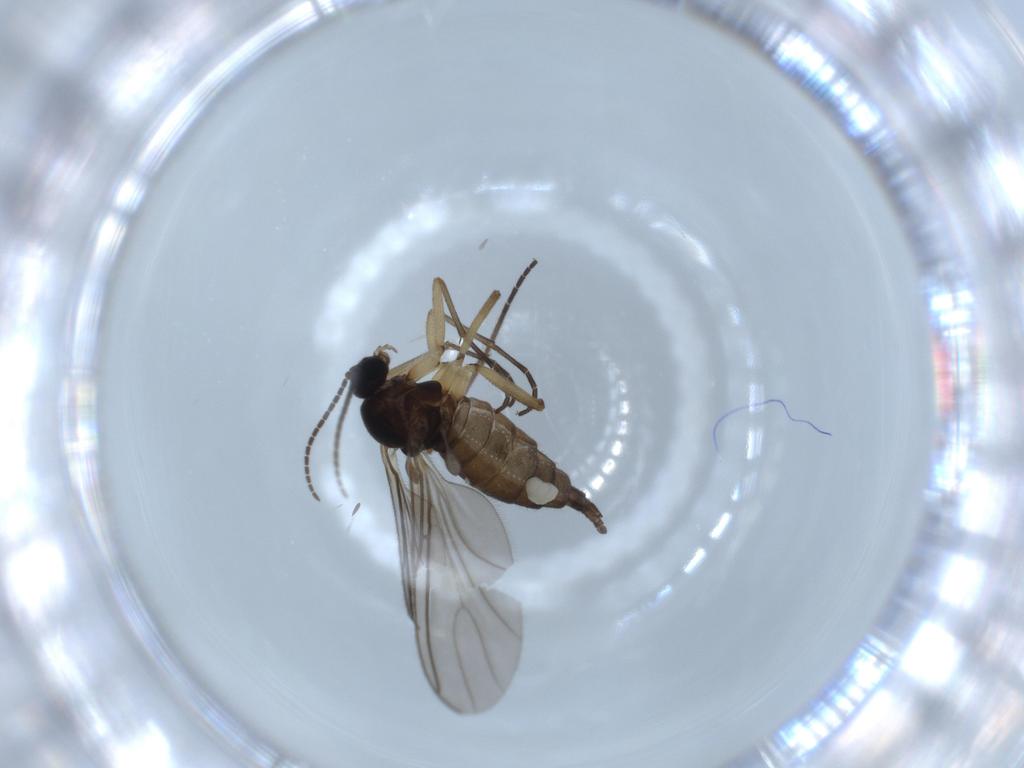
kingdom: Animalia
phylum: Arthropoda
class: Insecta
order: Diptera
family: Sciaridae
